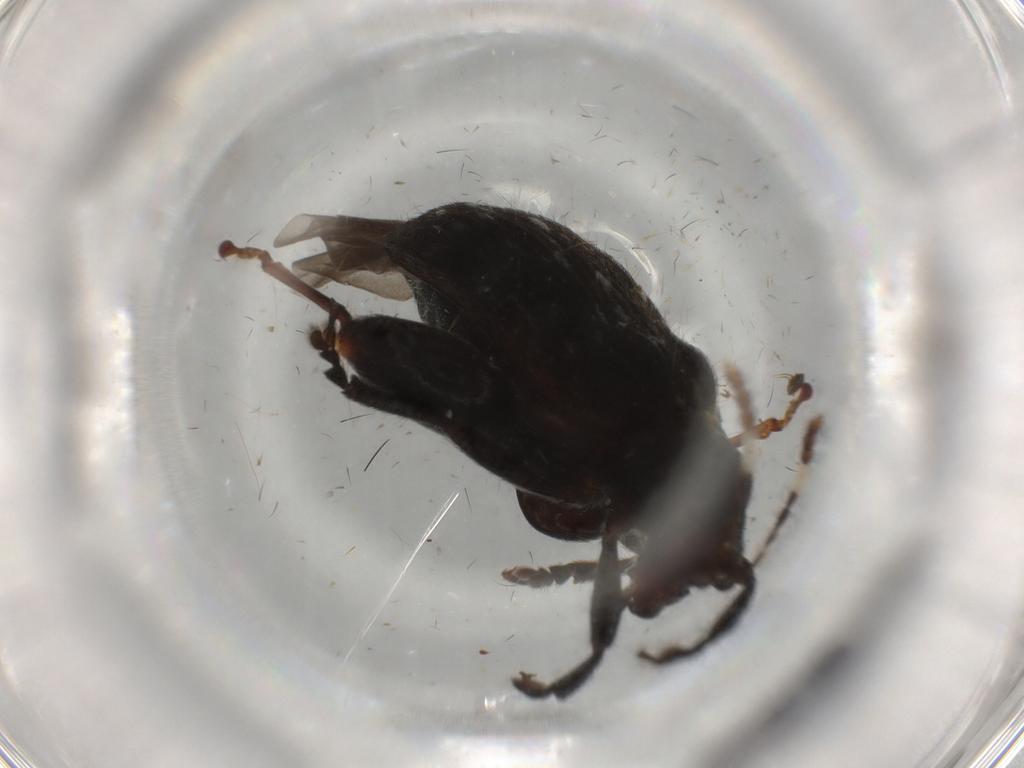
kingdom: Animalia
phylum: Arthropoda
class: Insecta
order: Coleoptera
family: Chrysomelidae
